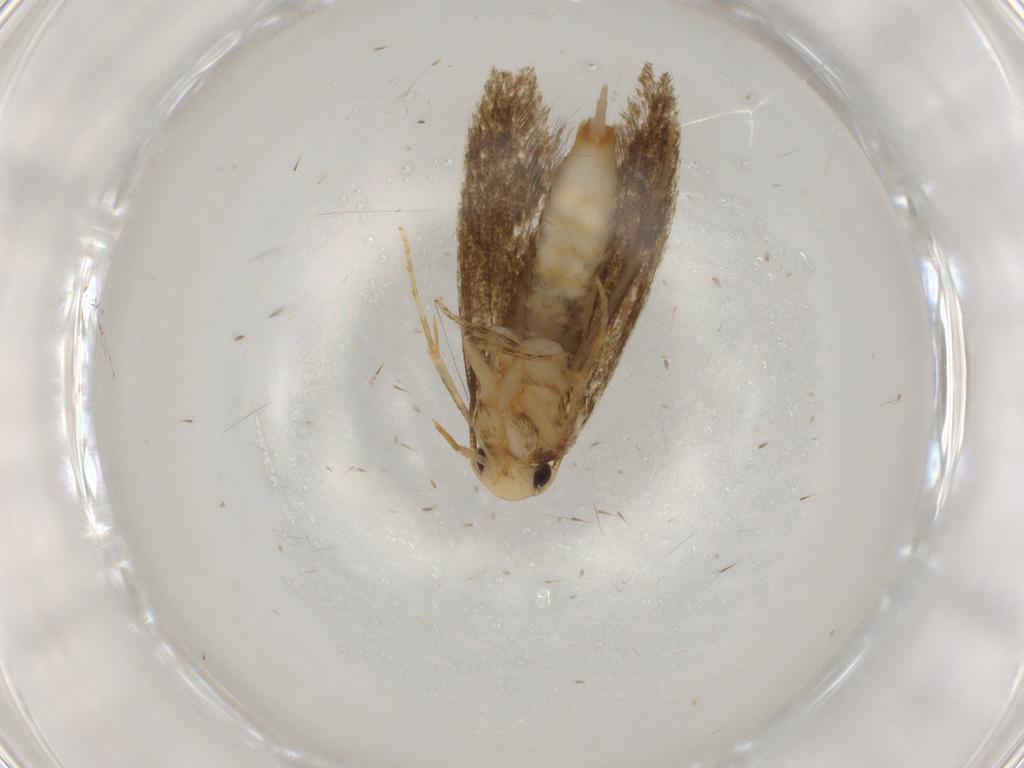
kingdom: Animalia
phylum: Arthropoda
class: Insecta
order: Lepidoptera
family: Tineidae
